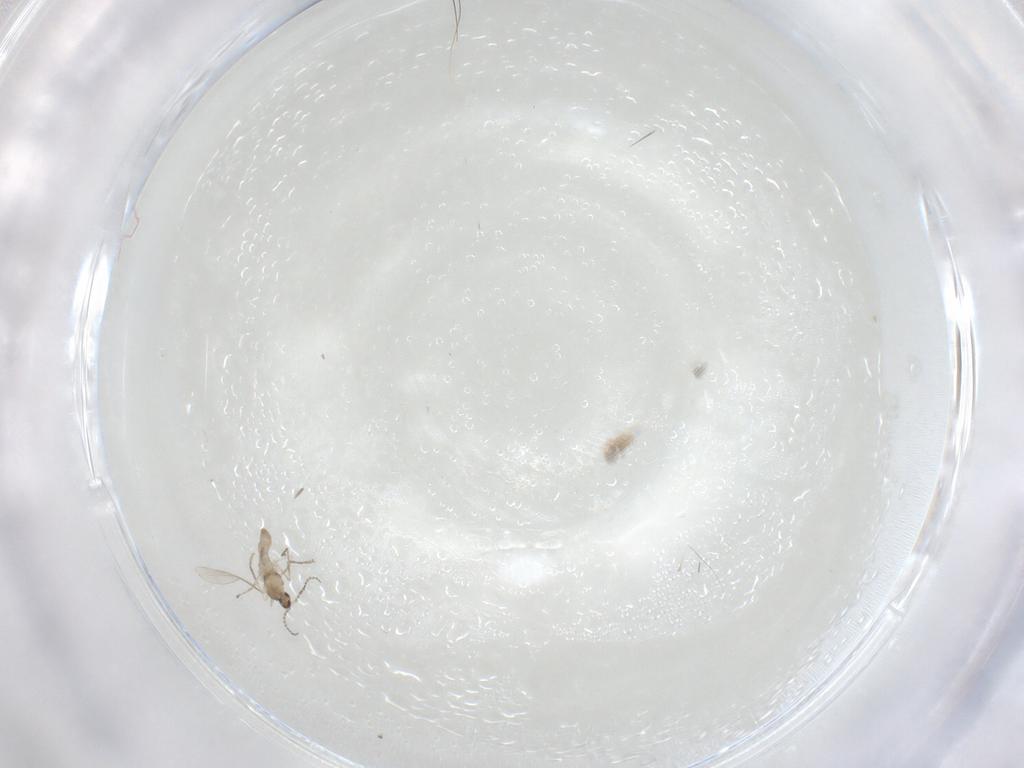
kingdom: Animalia
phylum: Arthropoda
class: Insecta
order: Diptera
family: Cecidomyiidae
